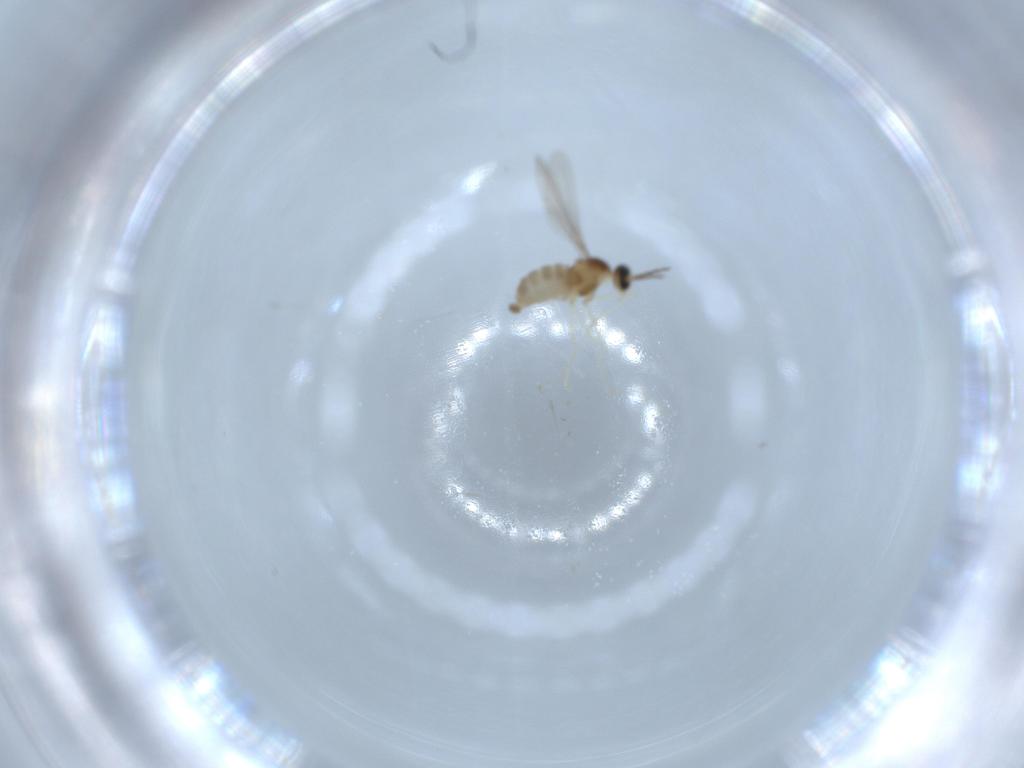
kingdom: Animalia
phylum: Arthropoda
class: Insecta
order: Diptera
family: Cecidomyiidae
